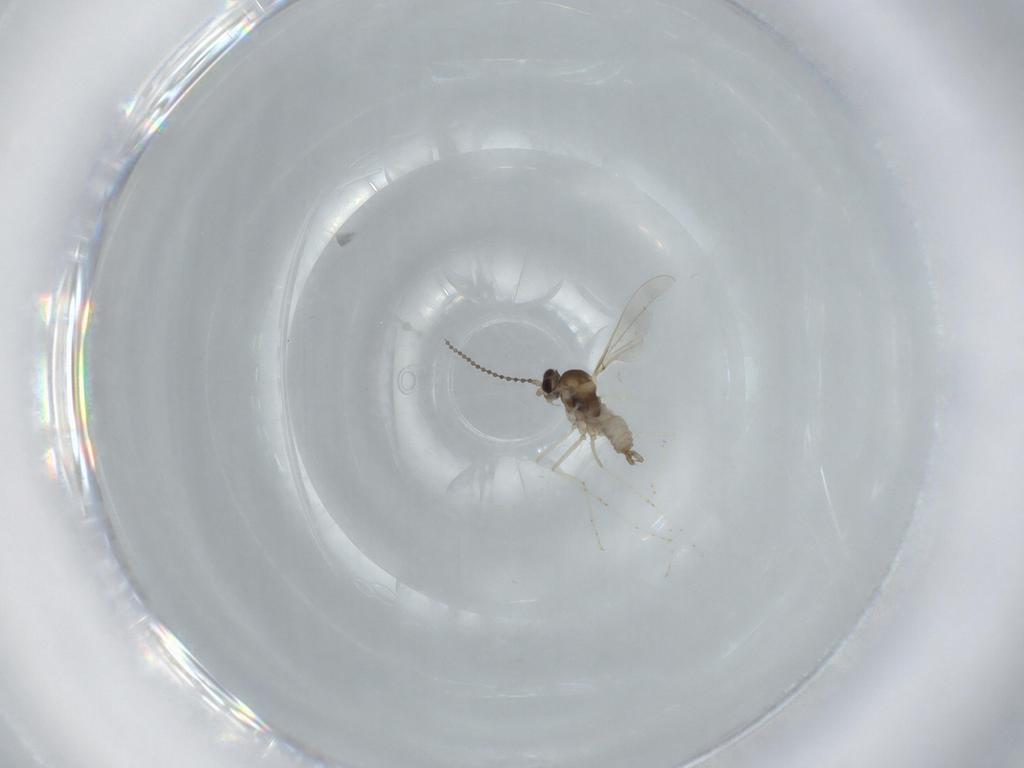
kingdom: Animalia
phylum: Arthropoda
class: Insecta
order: Diptera
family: Cecidomyiidae
